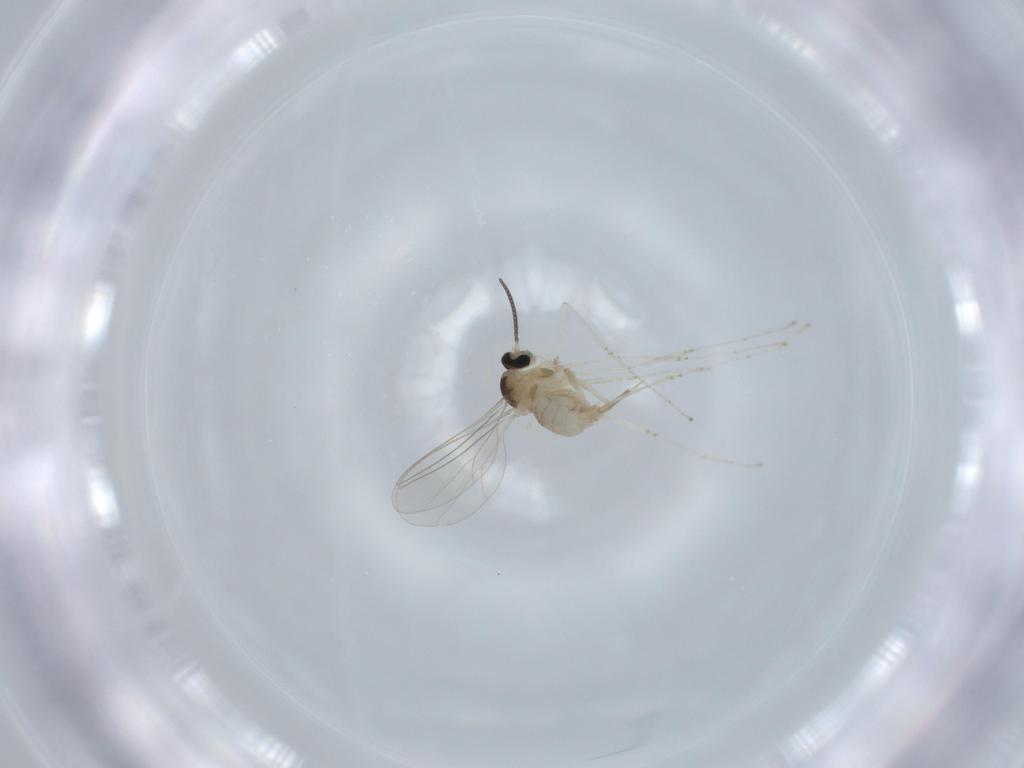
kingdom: Animalia
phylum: Arthropoda
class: Insecta
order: Diptera
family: Cecidomyiidae
